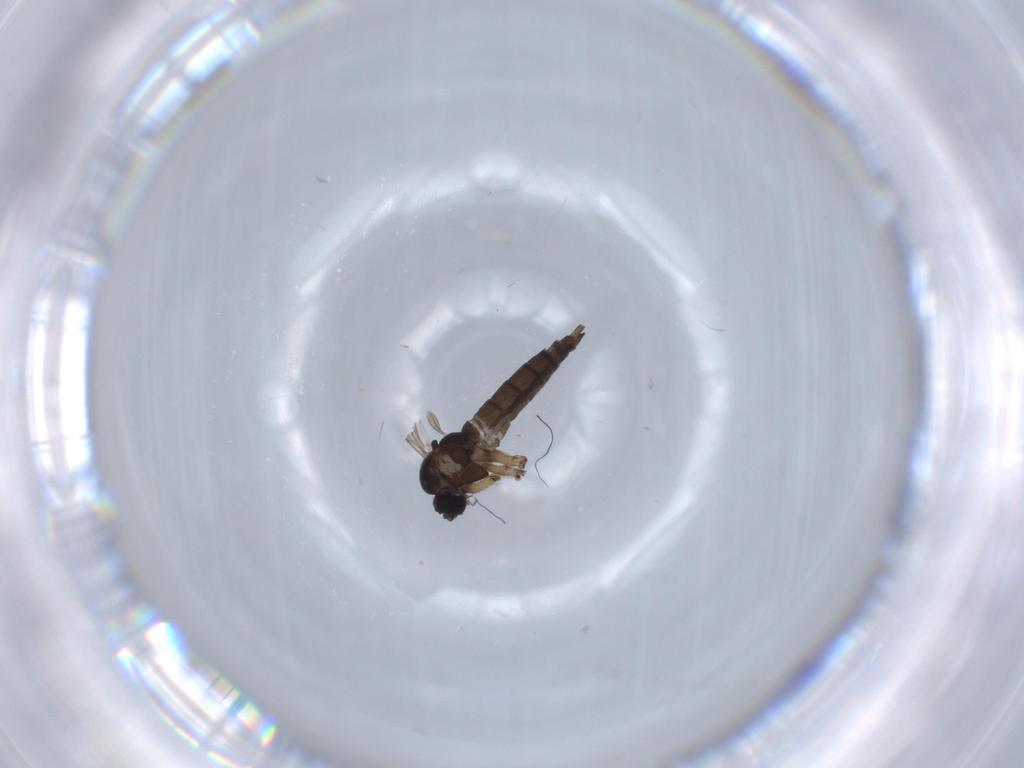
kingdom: Animalia
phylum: Arthropoda
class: Insecta
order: Diptera
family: Sciaridae
